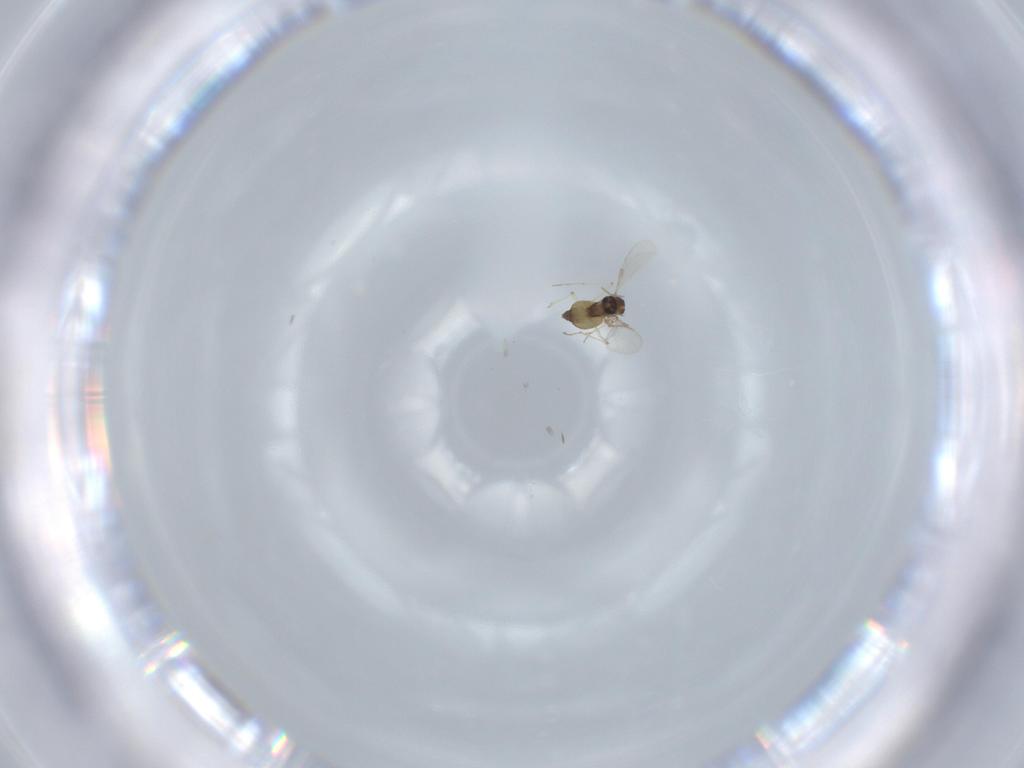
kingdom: Animalia
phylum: Arthropoda
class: Insecta
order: Diptera
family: Chironomidae
